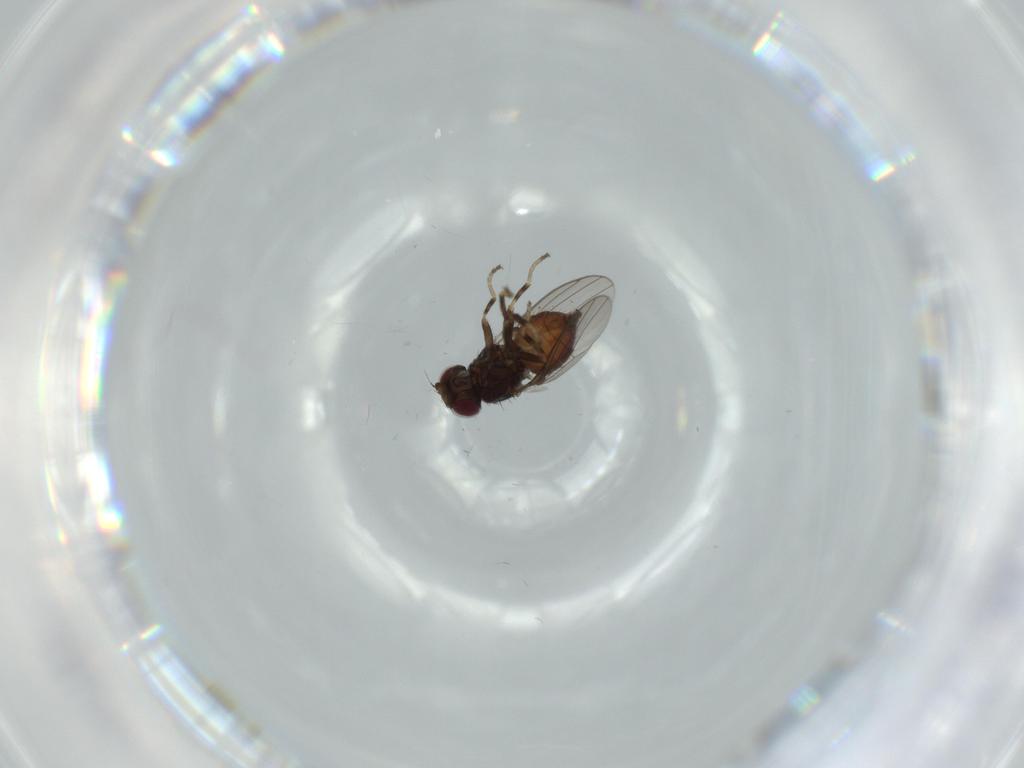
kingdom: Animalia
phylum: Arthropoda
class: Insecta
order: Diptera
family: Chloropidae
